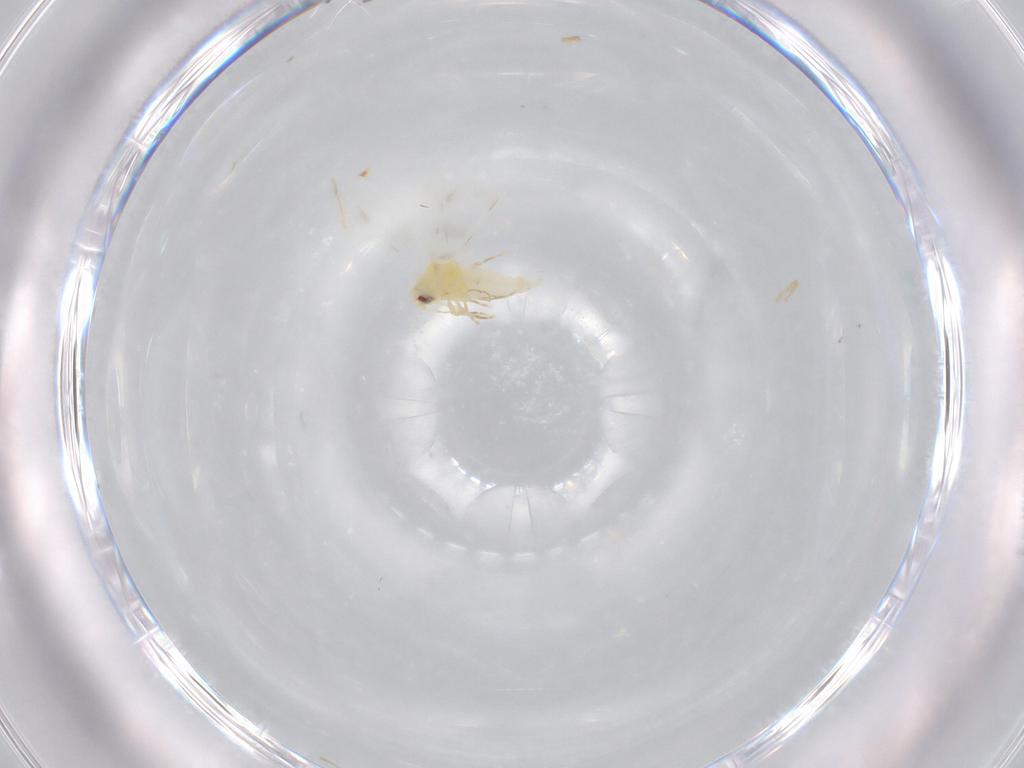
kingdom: Animalia
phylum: Arthropoda
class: Insecta
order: Hemiptera
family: Aleyrodidae
